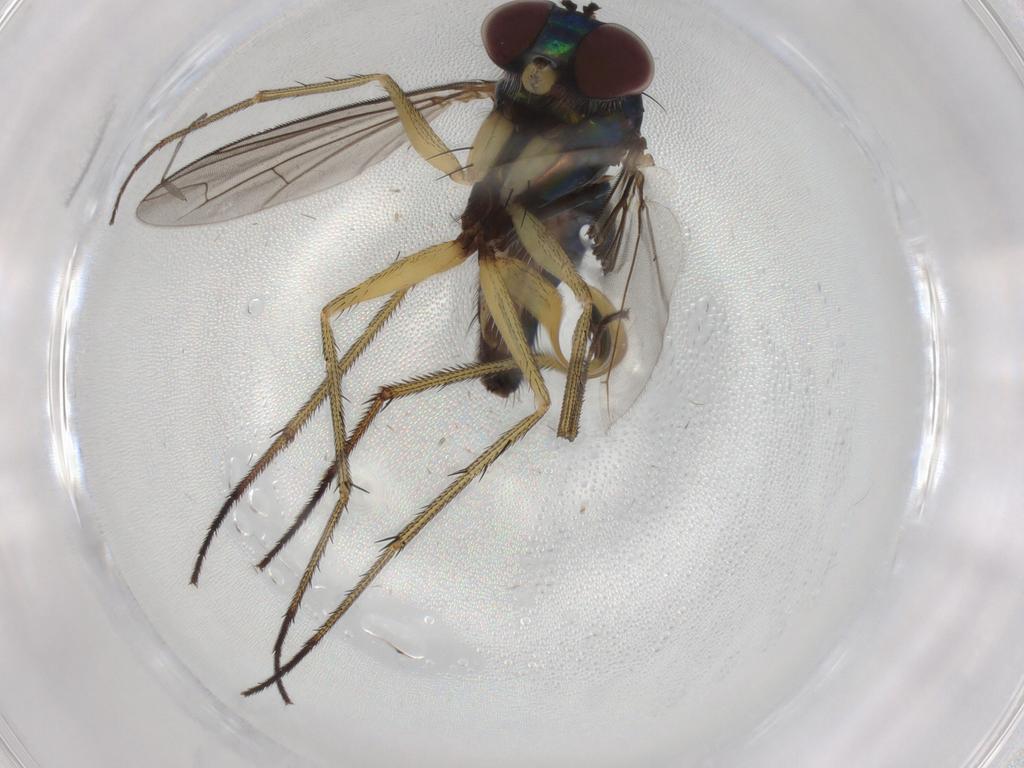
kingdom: Animalia
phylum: Arthropoda
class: Insecta
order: Diptera
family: Dolichopodidae
